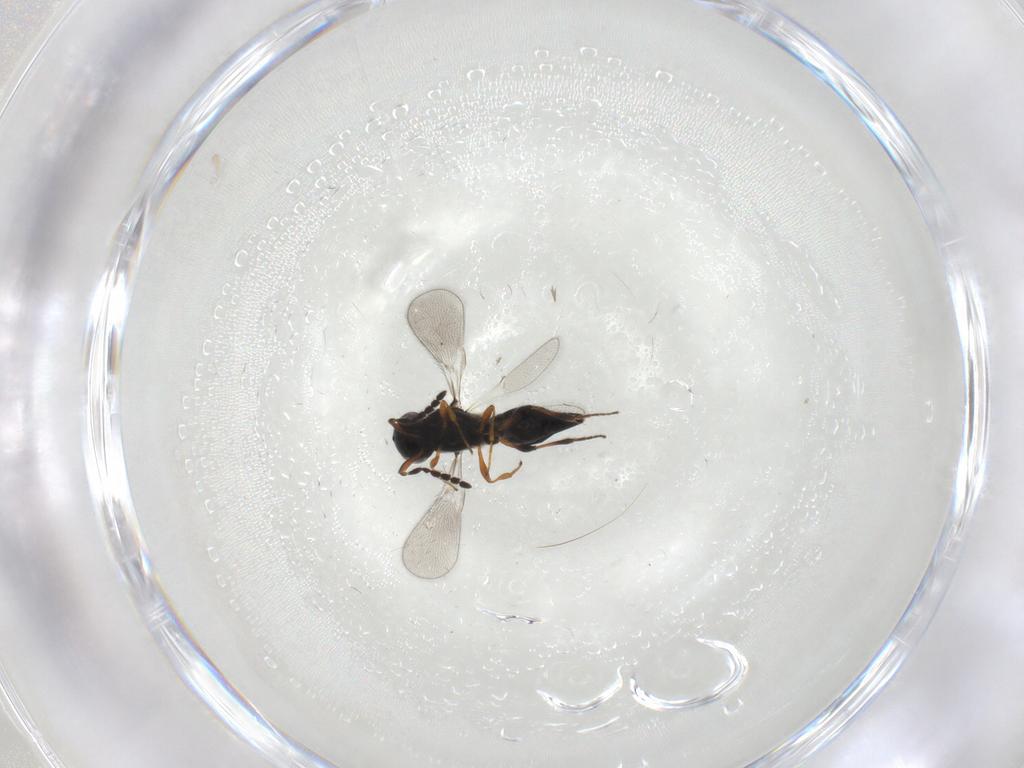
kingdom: Animalia
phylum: Arthropoda
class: Insecta
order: Hymenoptera
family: Platygastridae
